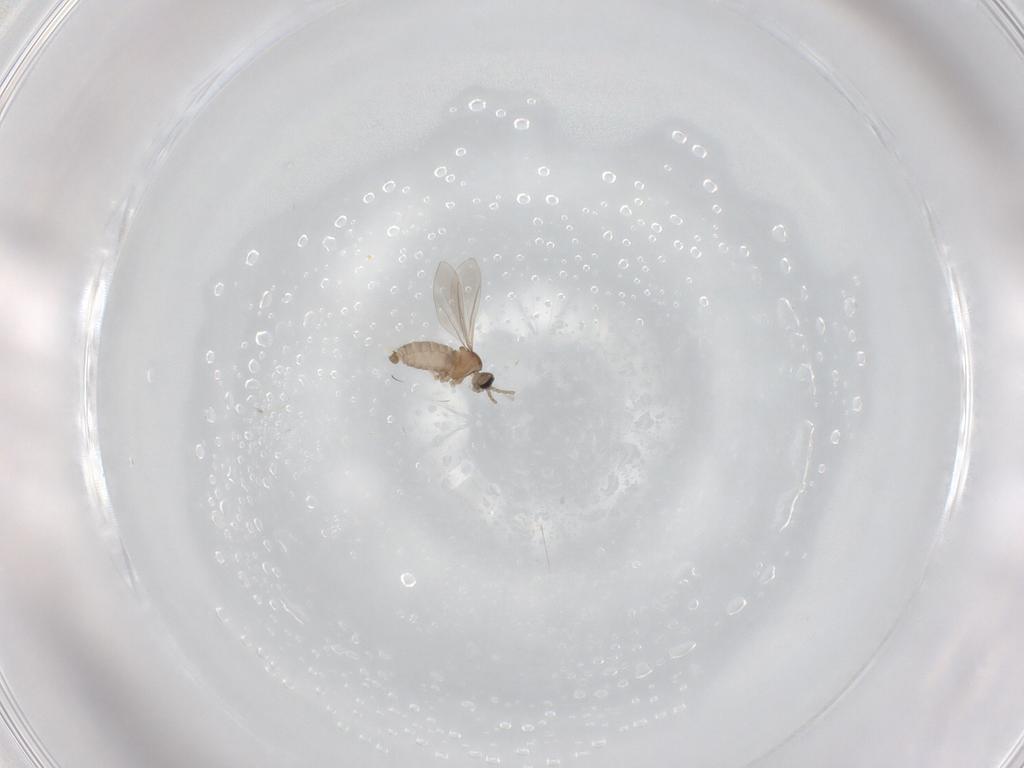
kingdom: Animalia
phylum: Arthropoda
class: Insecta
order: Diptera
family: Cecidomyiidae
